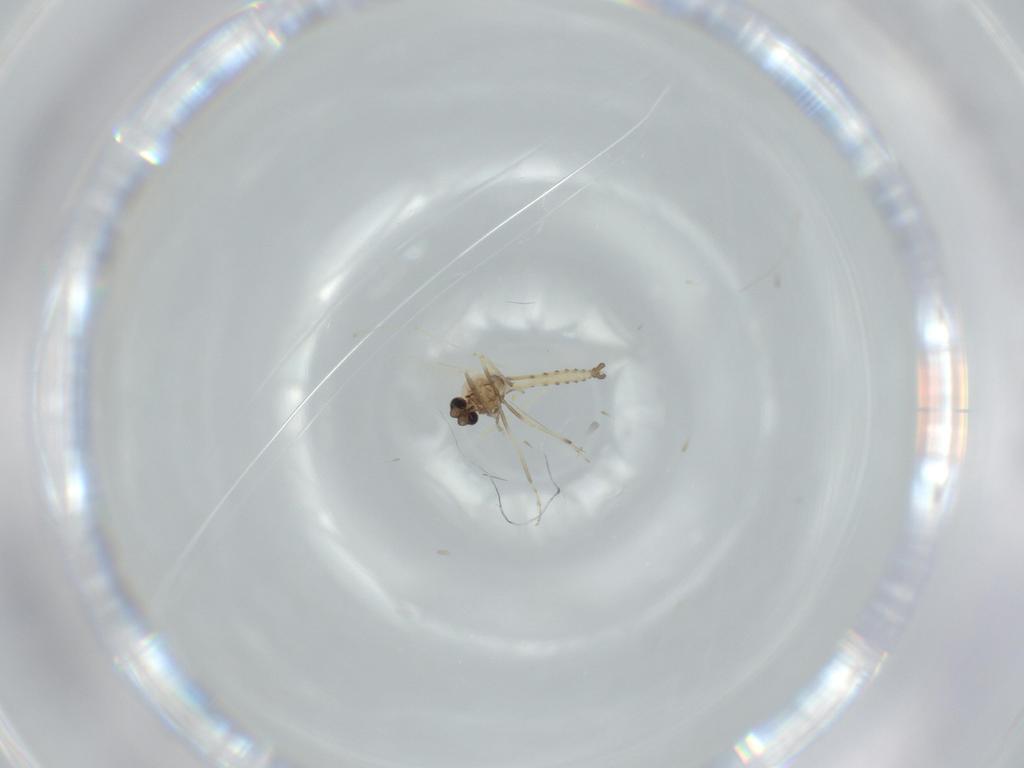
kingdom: Animalia
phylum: Arthropoda
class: Insecta
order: Diptera
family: Cecidomyiidae
